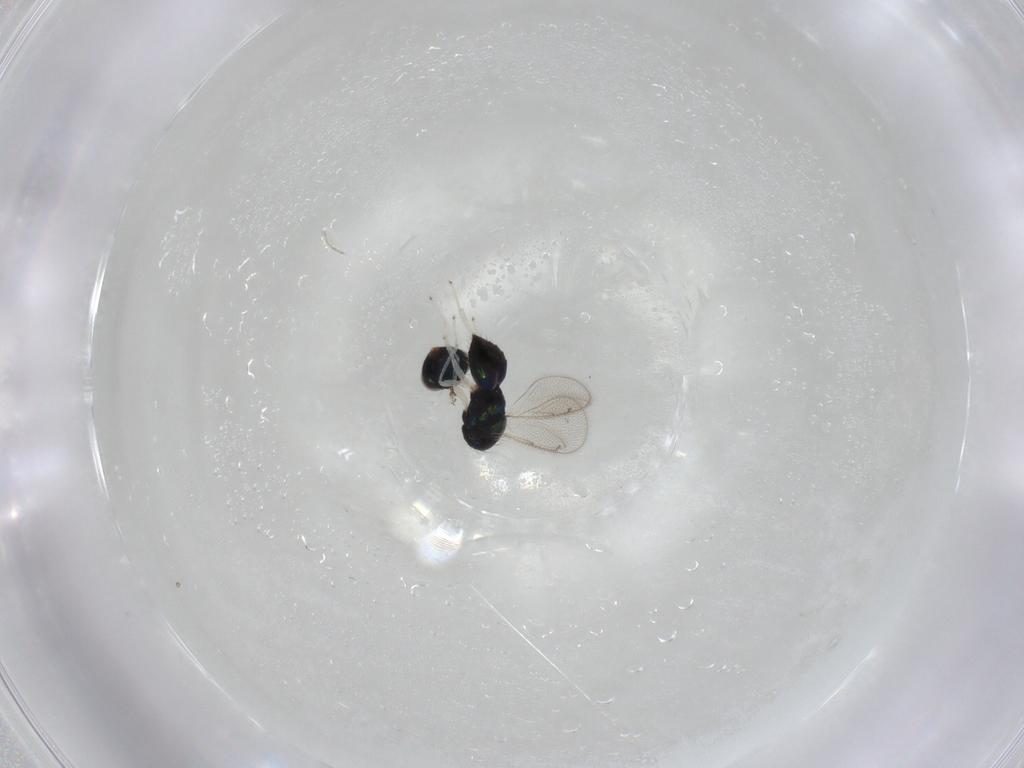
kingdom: Animalia
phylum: Arthropoda
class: Insecta
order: Hymenoptera
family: Eulophidae
